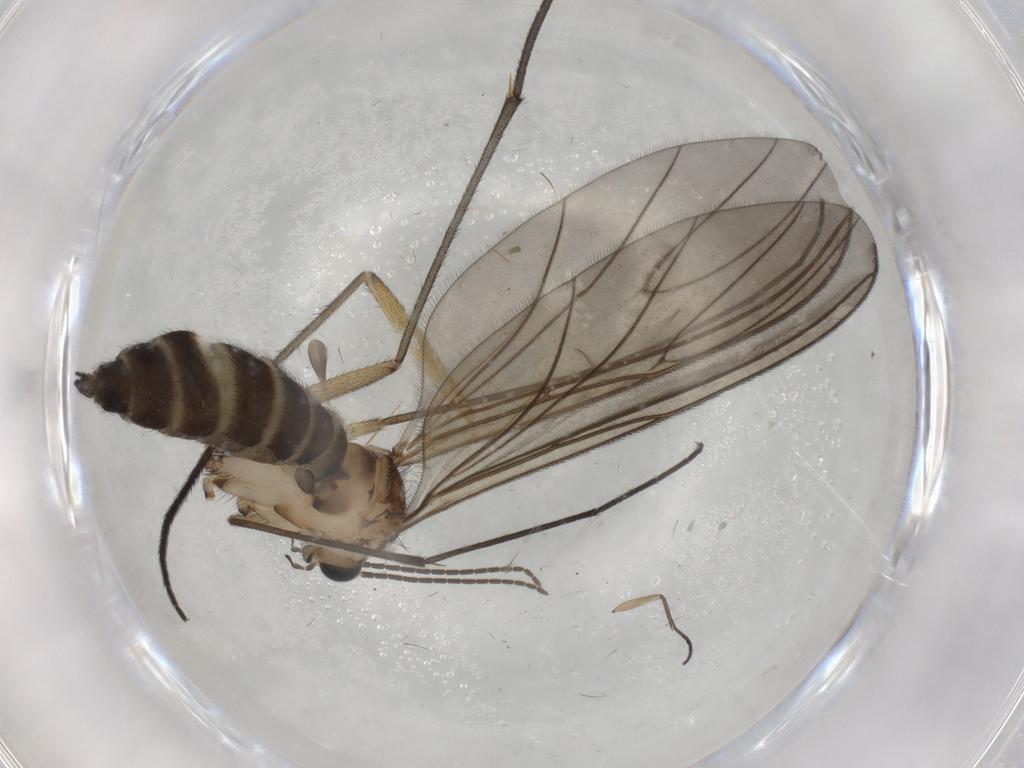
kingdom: Animalia
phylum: Arthropoda
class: Insecta
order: Diptera
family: Sciaridae
